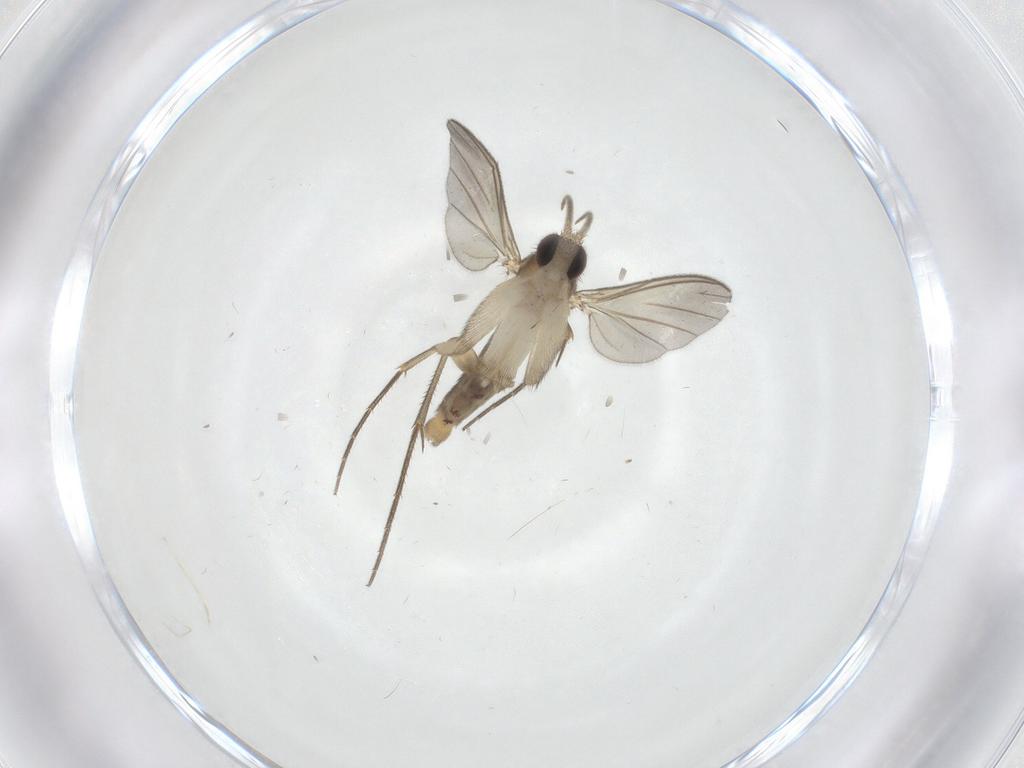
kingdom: Animalia
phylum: Arthropoda
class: Insecta
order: Diptera
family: Mycetophilidae
